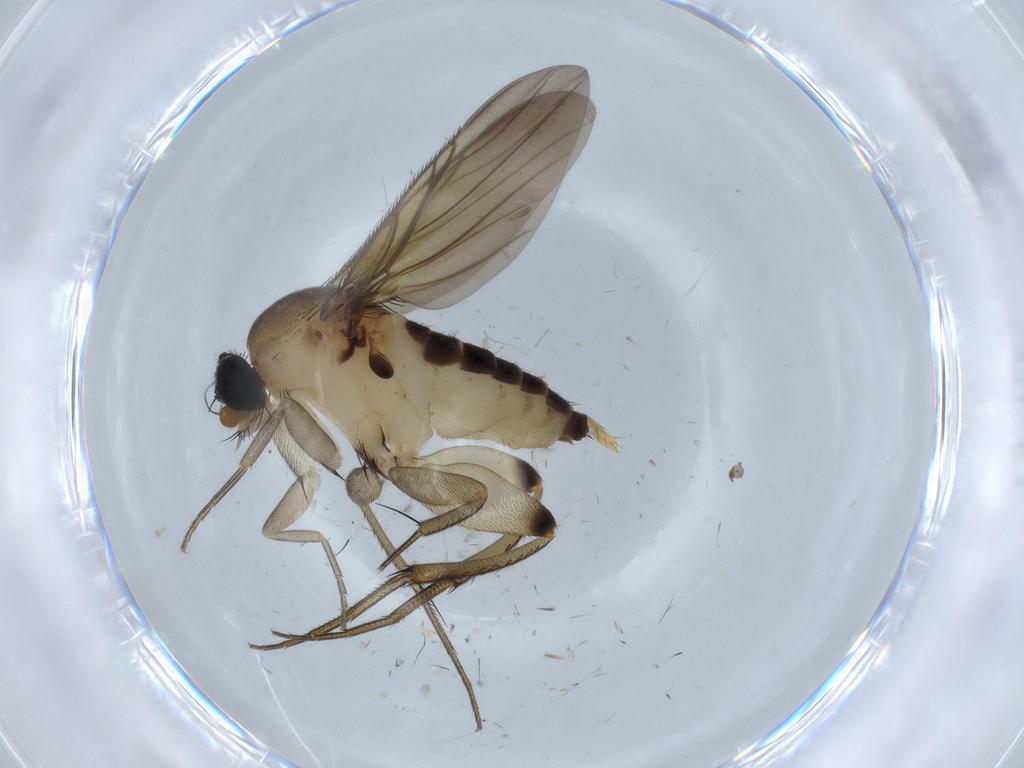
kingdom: Animalia
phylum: Arthropoda
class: Insecta
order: Diptera
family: Phoridae
